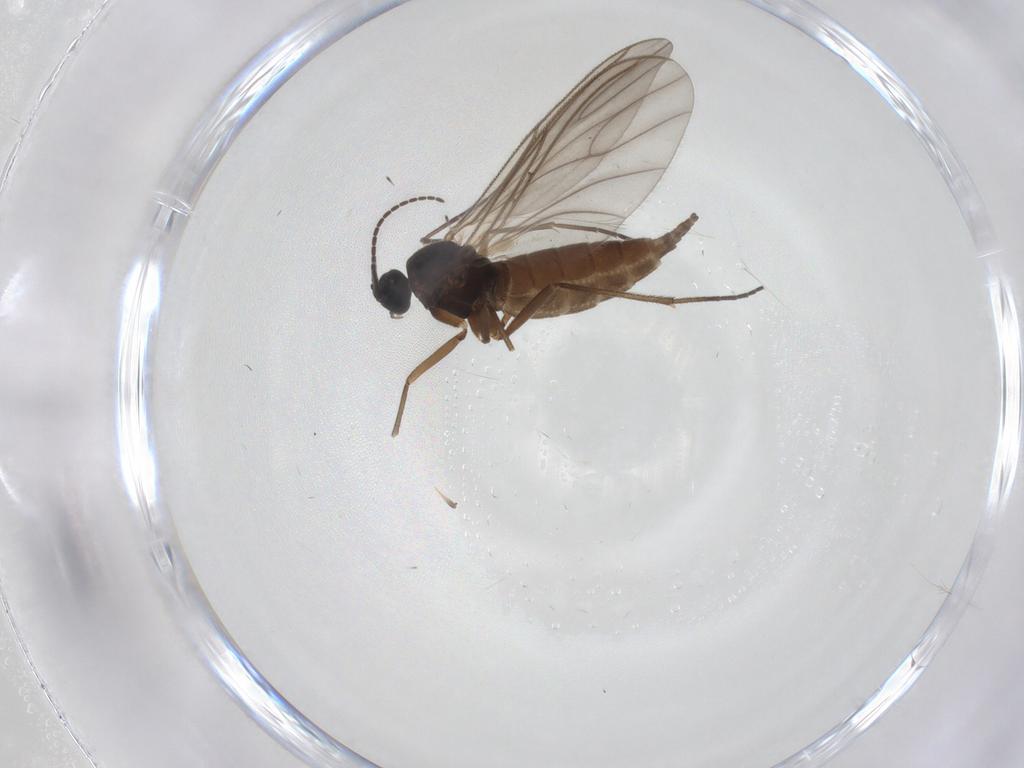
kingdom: Animalia
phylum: Arthropoda
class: Insecta
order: Diptera
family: Sciaridae
